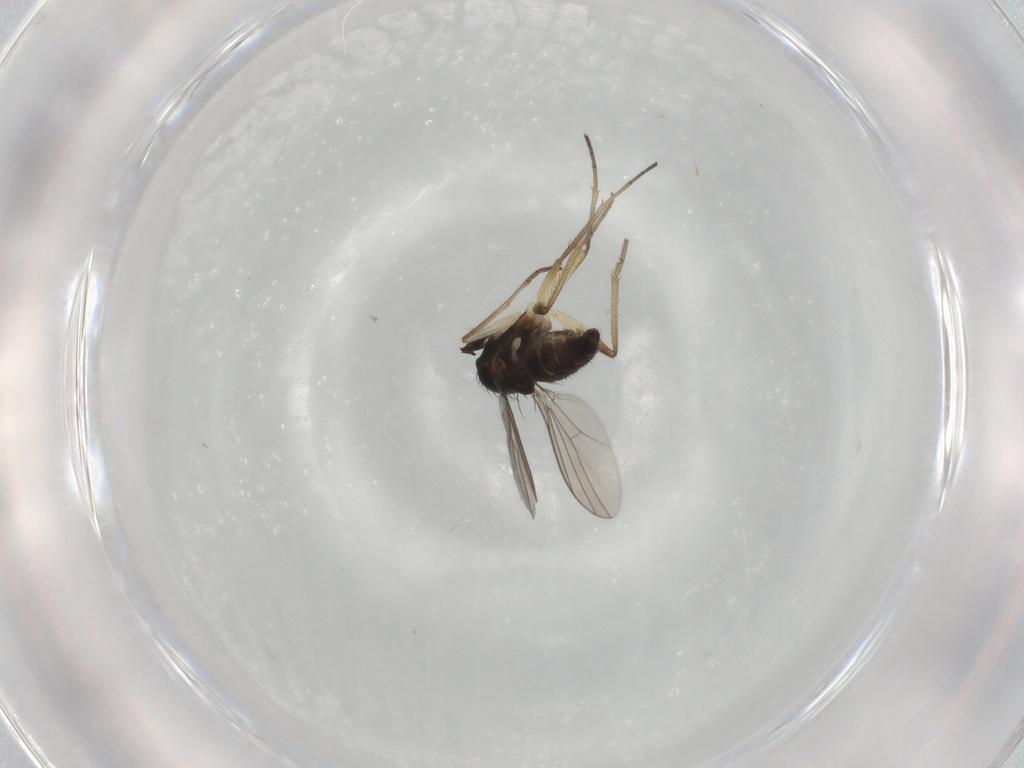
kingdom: Animalia
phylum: Arthropoda
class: Insecta
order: Diptera
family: Dolichopodidae
